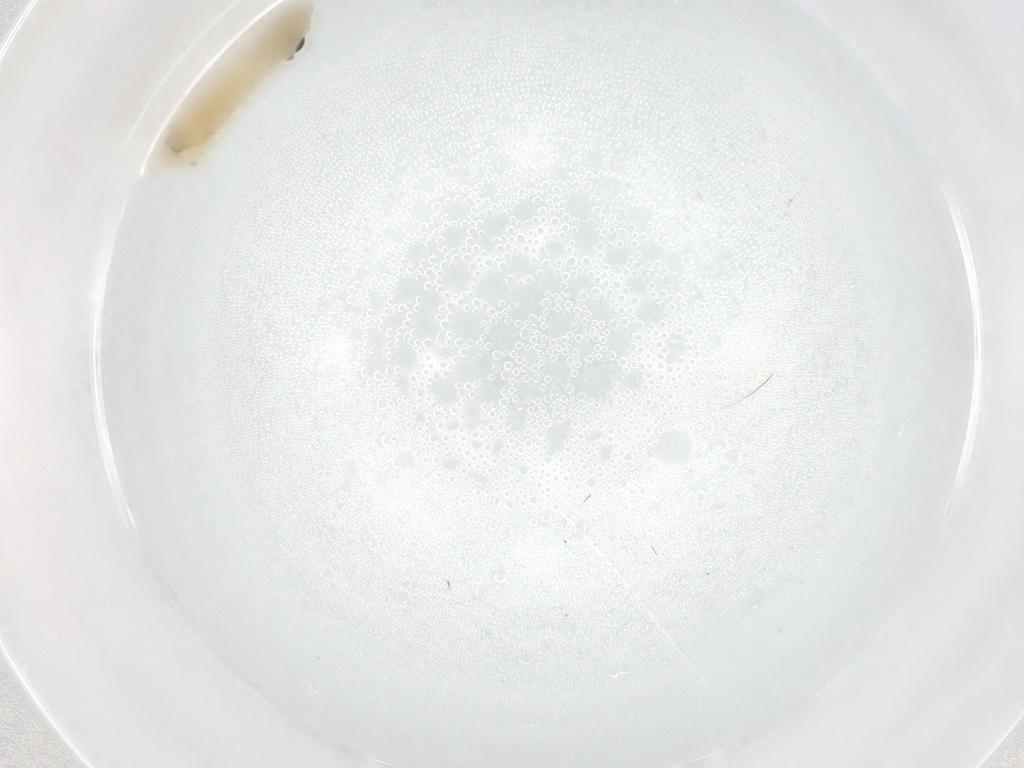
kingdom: Animalia
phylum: Arthropoda
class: Insecta
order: Diptera
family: Chironomidae
